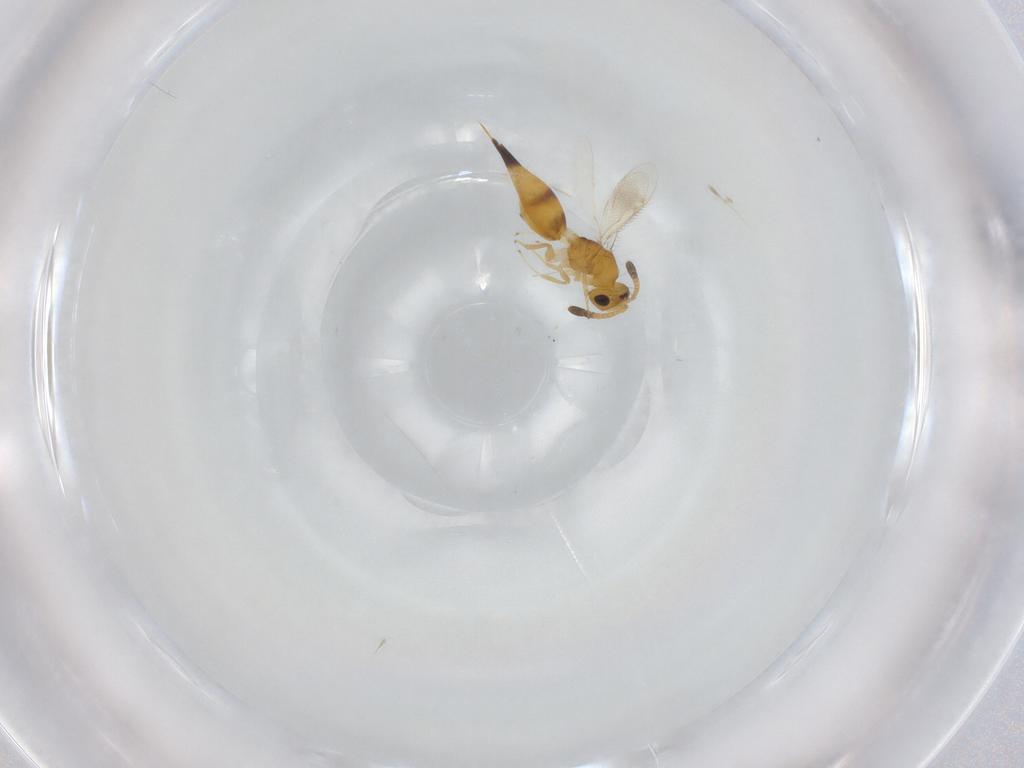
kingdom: Animalia
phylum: Arthropoda
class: Insecta
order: Hymenoptera
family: Diparidae
